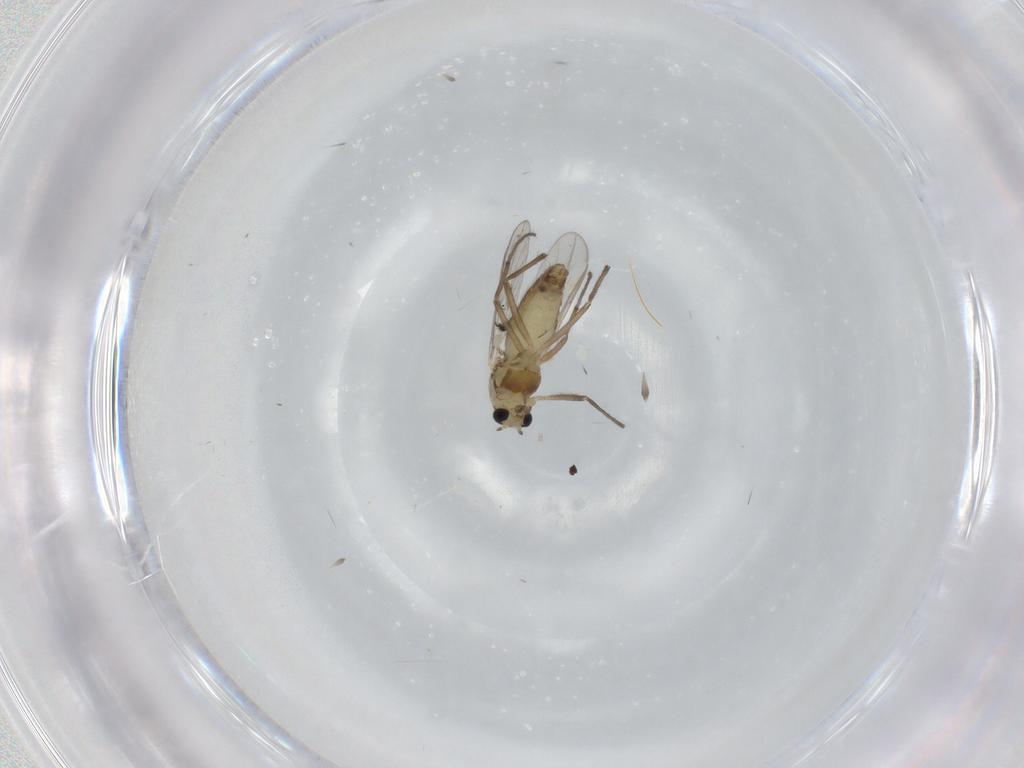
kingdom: Animalia
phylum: Arthropoda
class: Insecta
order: Diptera
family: Chironomidae
